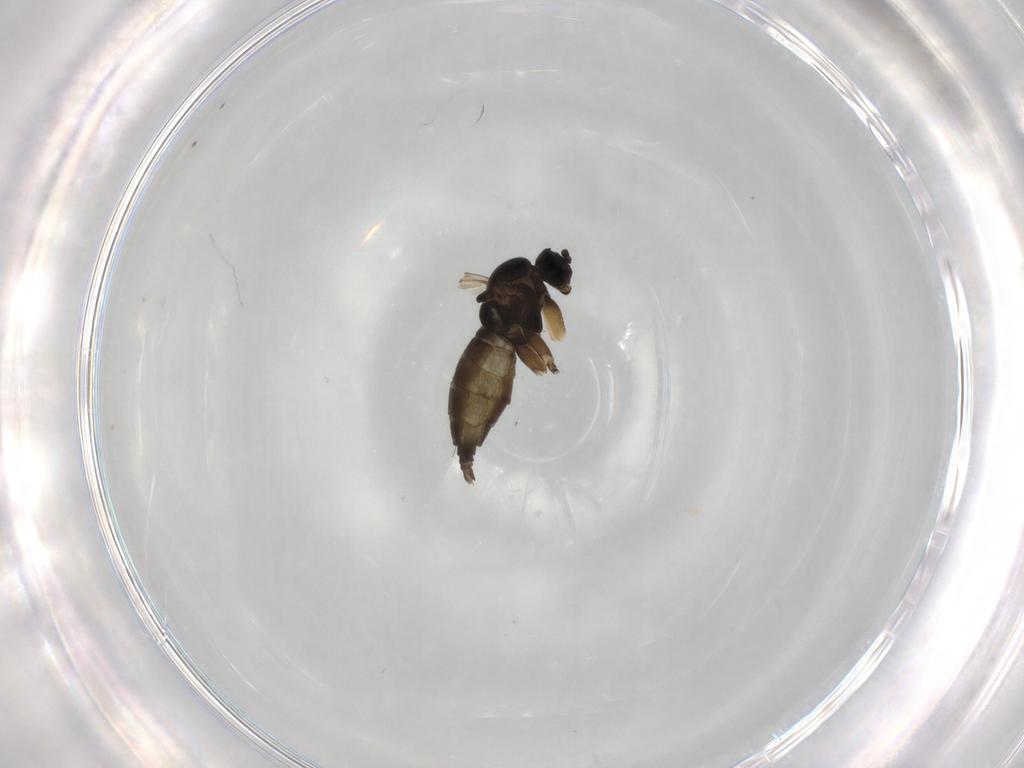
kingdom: Animalia
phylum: Arthropoda
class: Insecta
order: Diptera
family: Sciaridae
